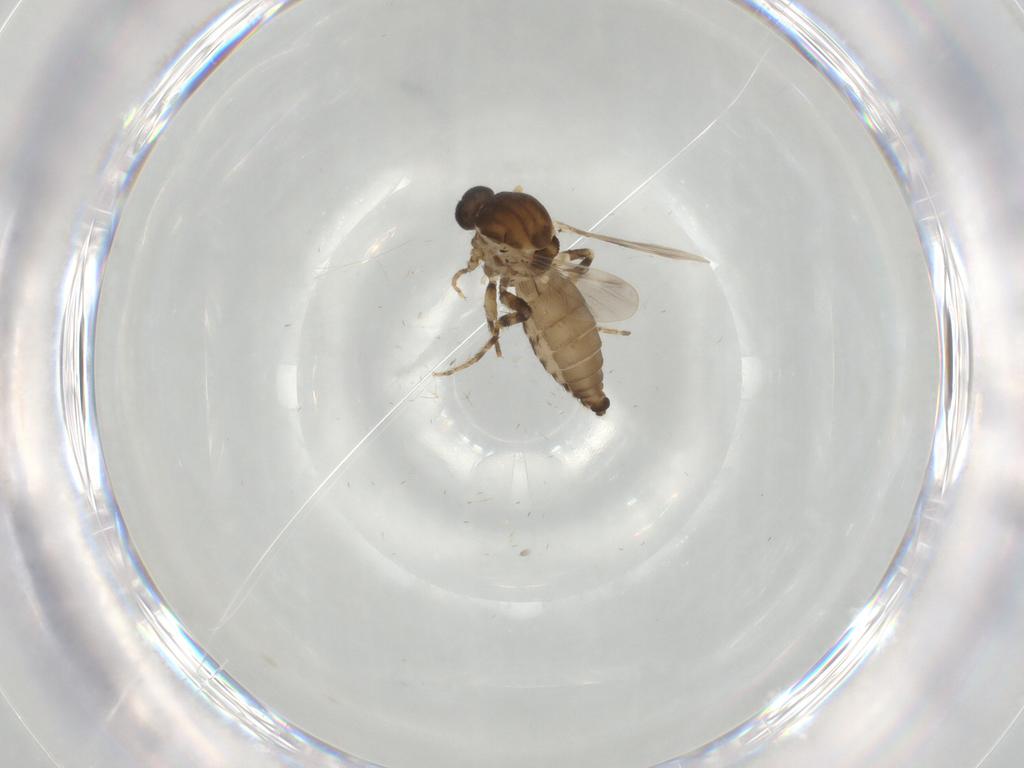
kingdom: Animalia
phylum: Arthropoda
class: Insecta
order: Diptera
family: Ceratopogonidae
